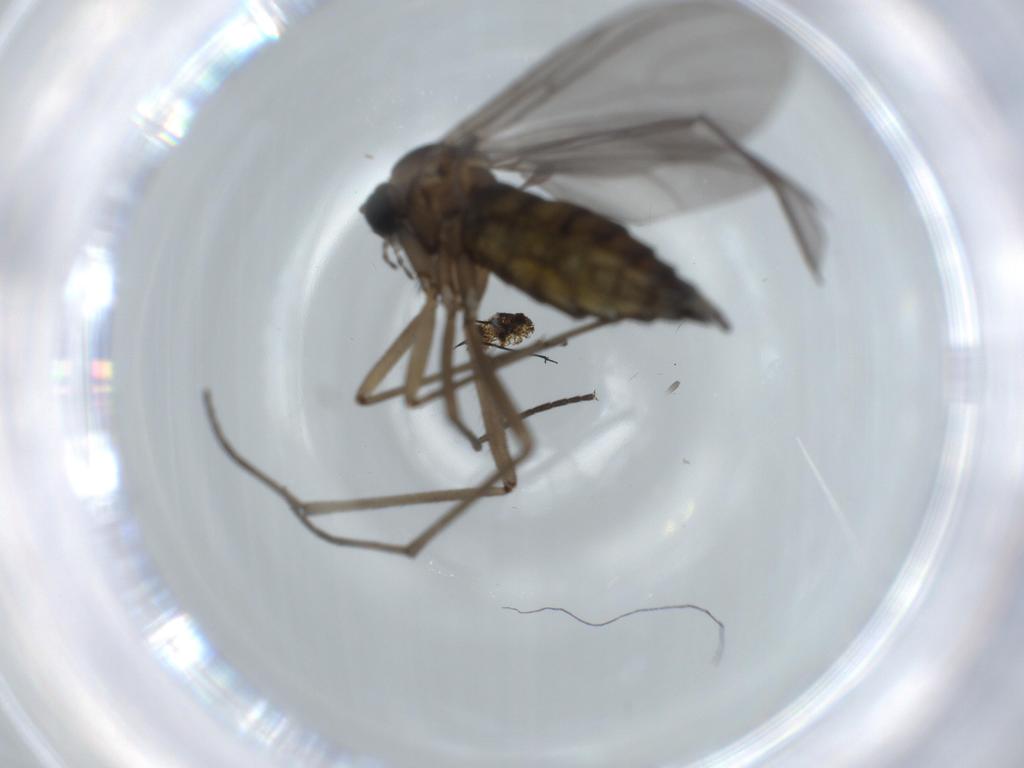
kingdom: Animalia
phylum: Arthropoda
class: Insecta
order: Diptera
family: Sciaridae
